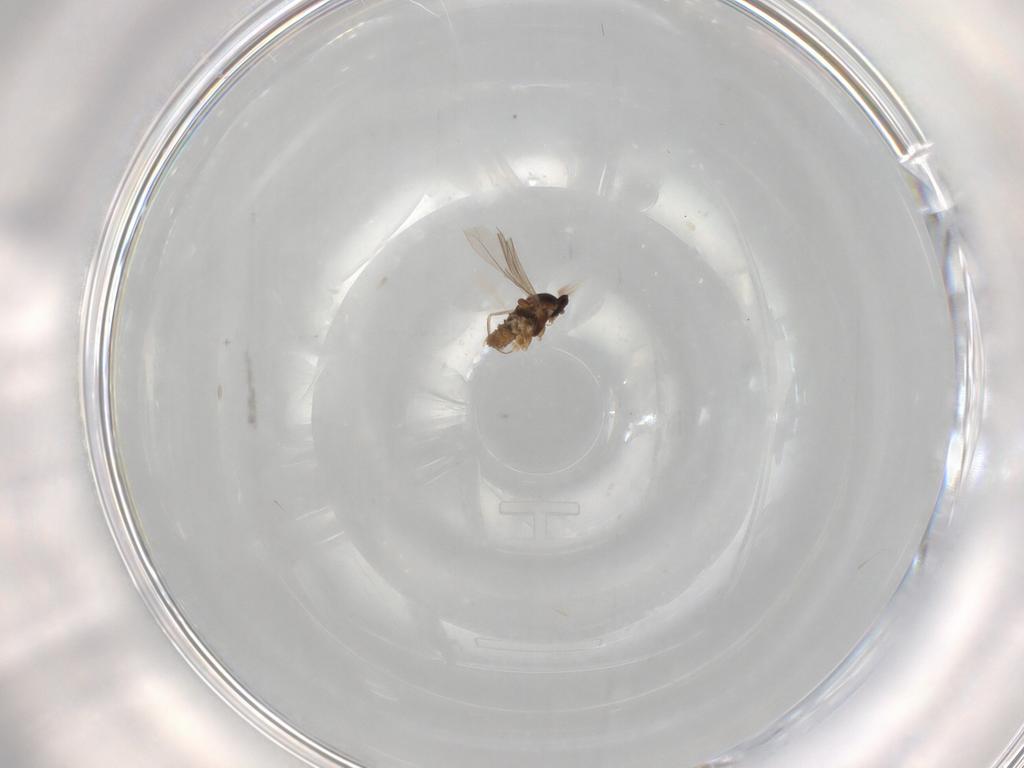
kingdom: Animalia
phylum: Arthropoda
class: Insecta
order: Diptera
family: Cecidomyiidae
